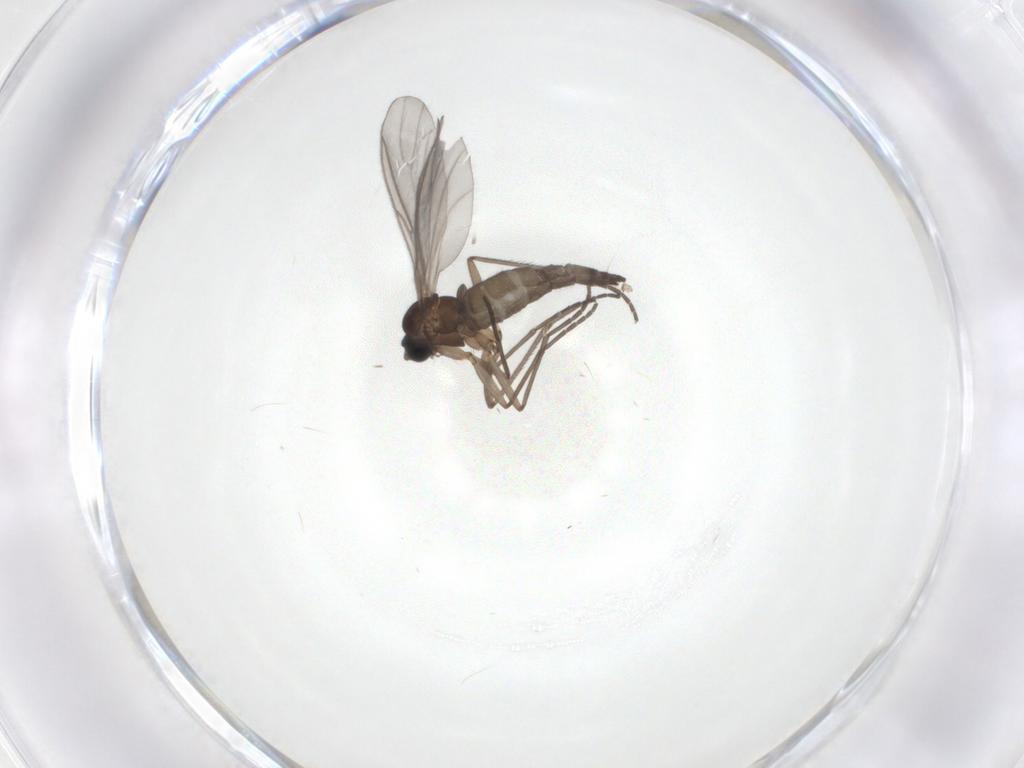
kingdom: Animalia
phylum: Arthropoda
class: Insecta
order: Diptera
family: Sciaridae
